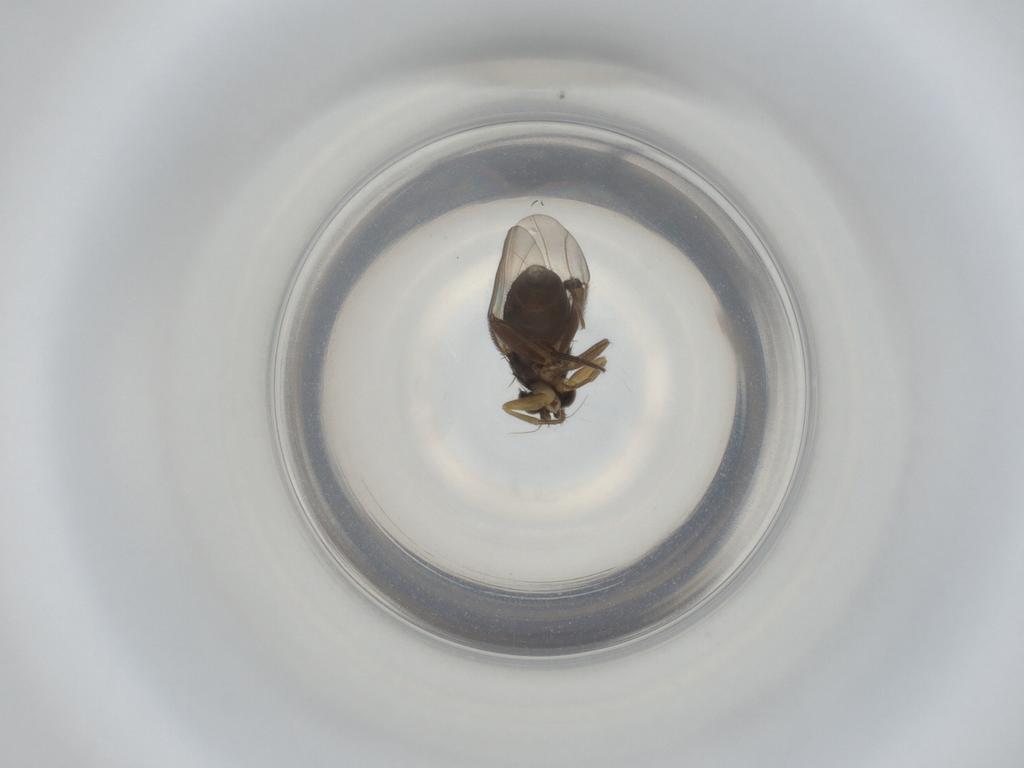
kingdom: Animalia
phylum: Arthropoda
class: Insecta
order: Diptera
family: Phoridae
